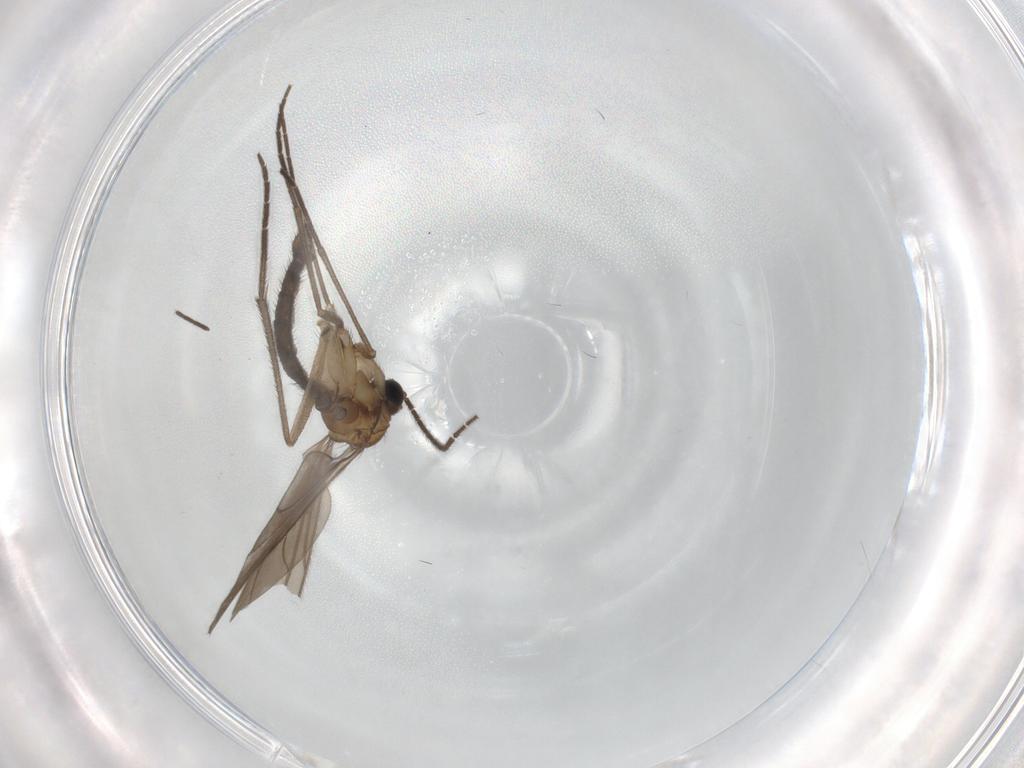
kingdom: Animalia
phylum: Arthropoda
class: Insecta
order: Diptera
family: Sciaridae
